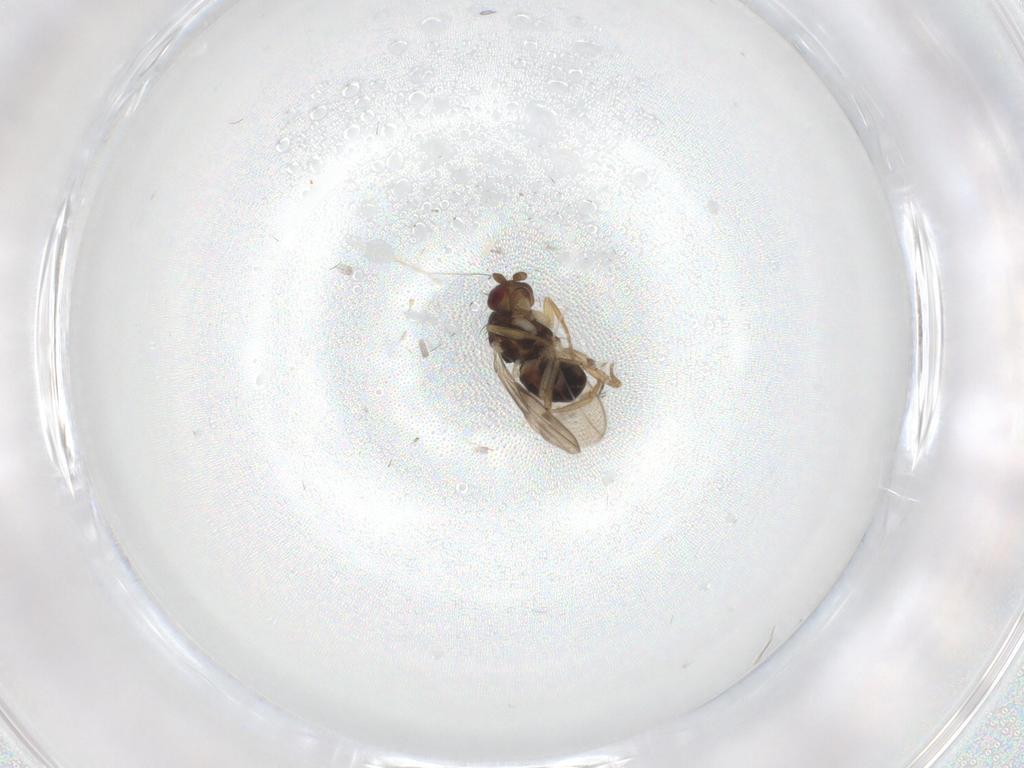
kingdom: Animalia
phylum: Arthropoda
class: Insecta
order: Diptera
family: Sphaeroceridae
